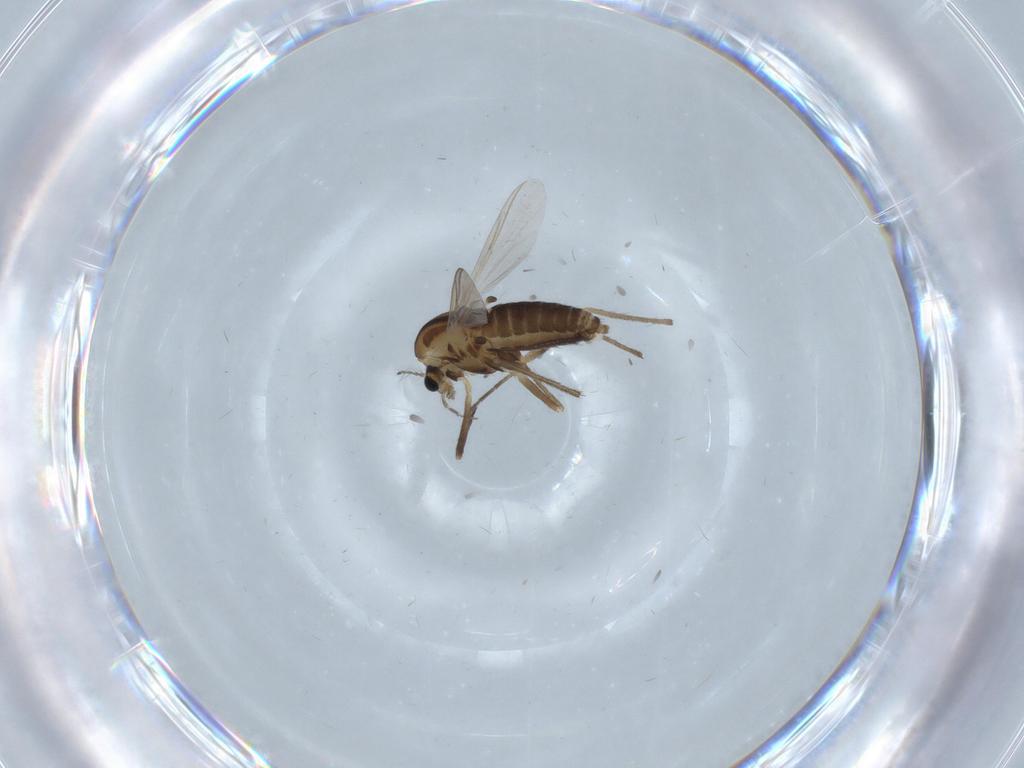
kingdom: Animalia
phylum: Arthropoda
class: Insecta
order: Diptera
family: Chironomidae
